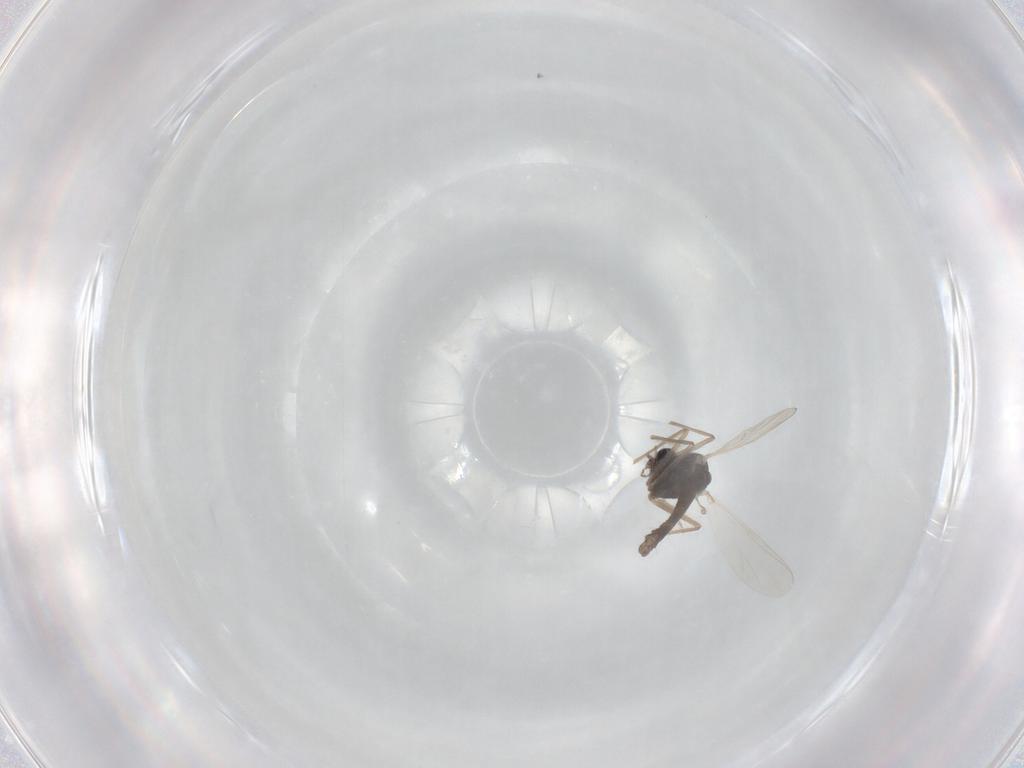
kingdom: Animalia
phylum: Arthropoda
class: Insecta
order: Diptera
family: Chironomidae
